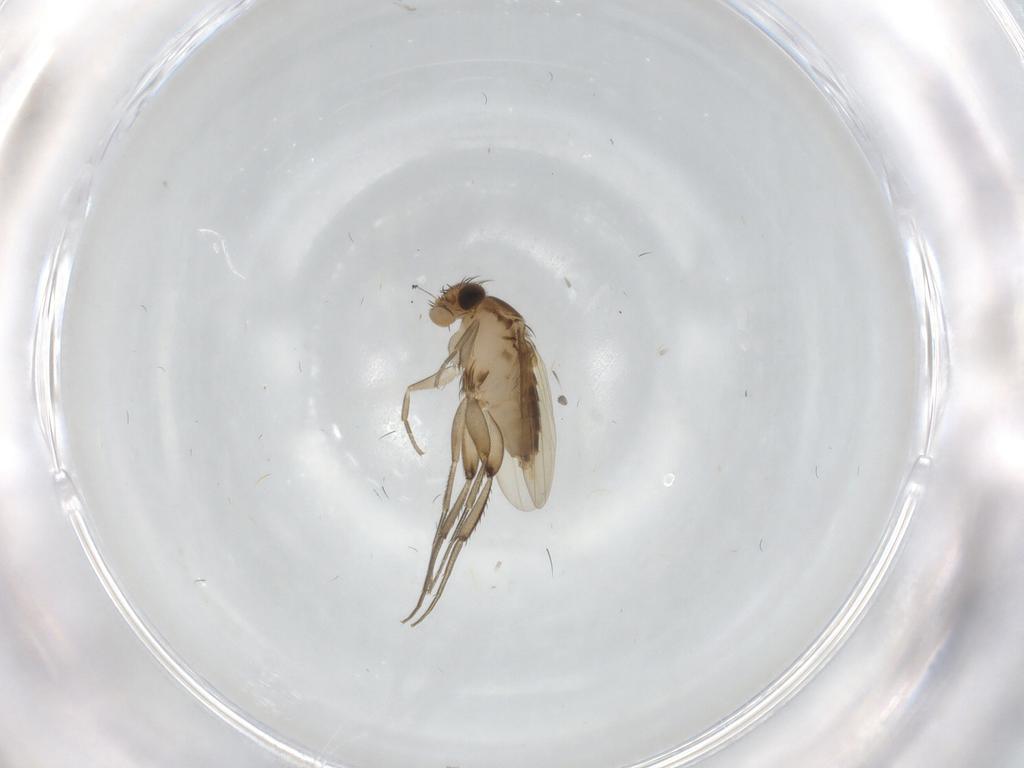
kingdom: Animalia
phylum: Arthropoda
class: Insecta
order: Diptera
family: Phoridae
